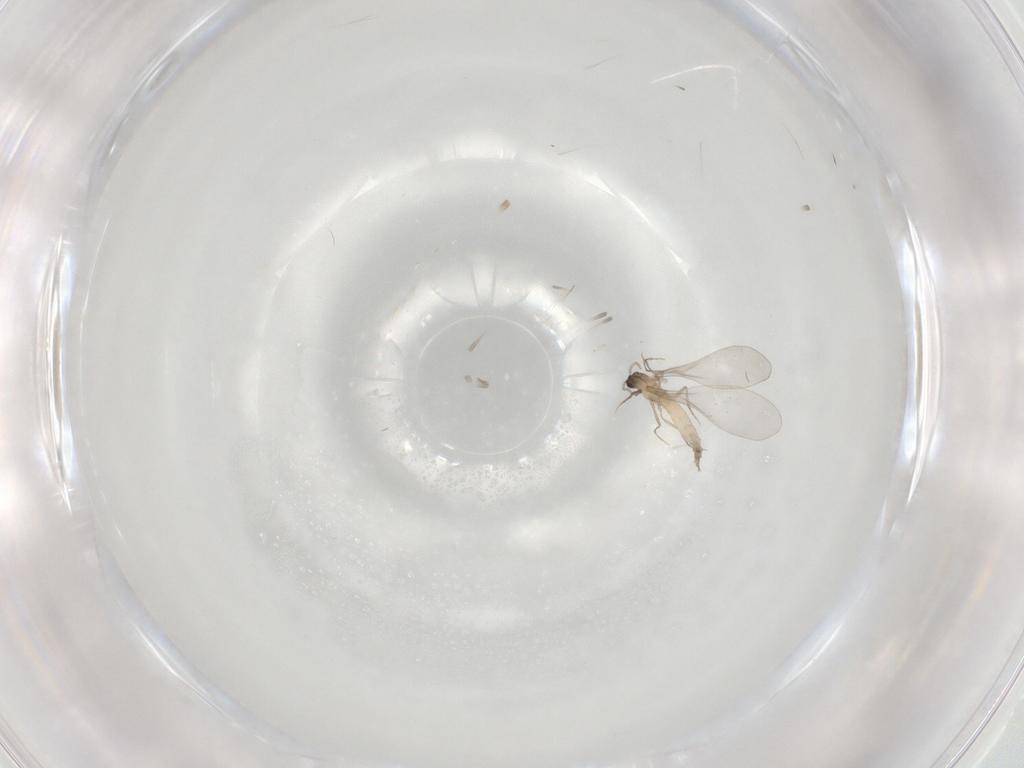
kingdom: Animalia
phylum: Arthropoda
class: Insecta
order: Diptera
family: Cecidomyiidae
